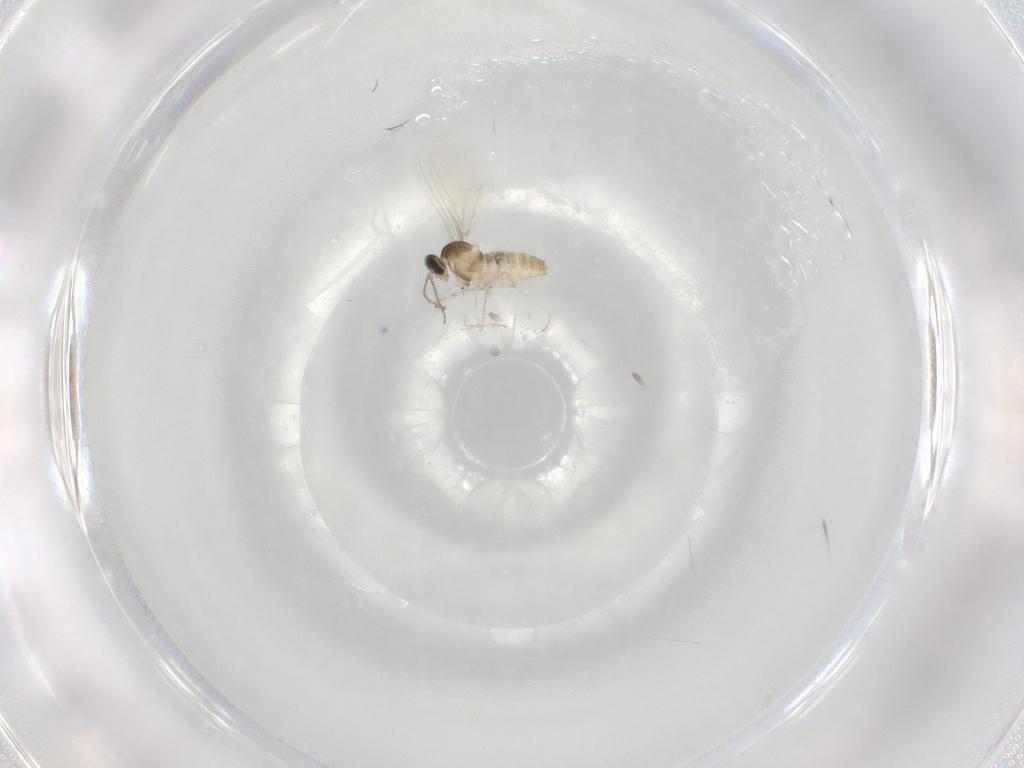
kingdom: Animalia
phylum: Arthropoda
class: Insecta
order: Diptera
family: Cecidomyiidae
